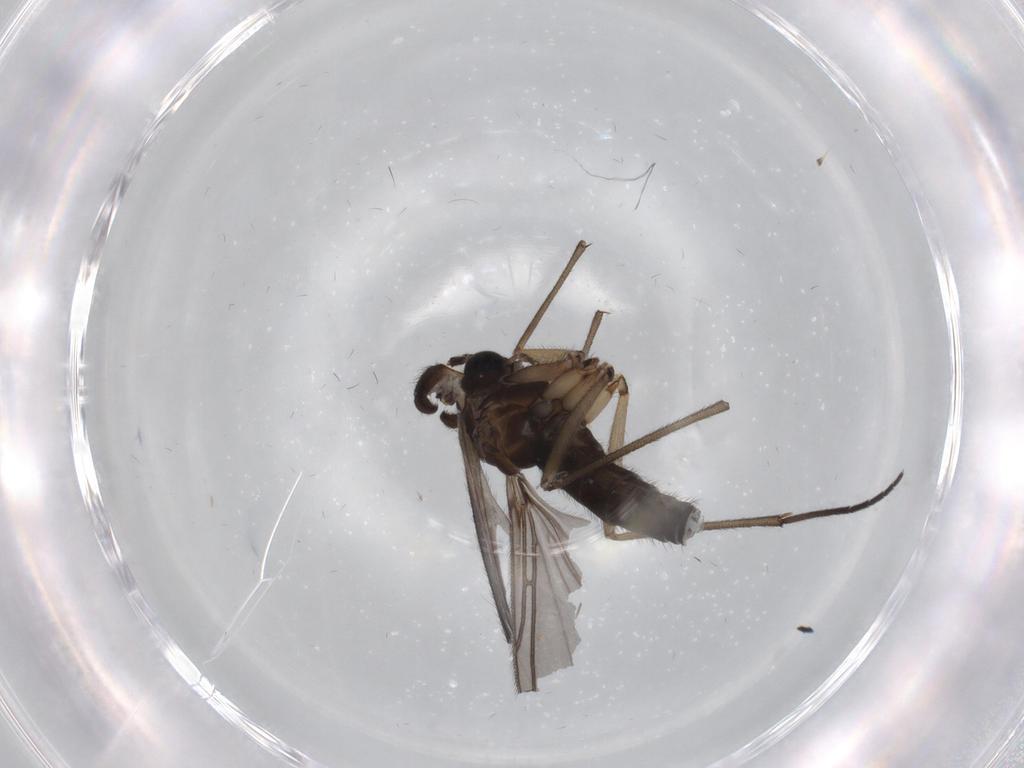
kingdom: Animalia
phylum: Arthropoda
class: Insecta
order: Diptera
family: Sciaridae
